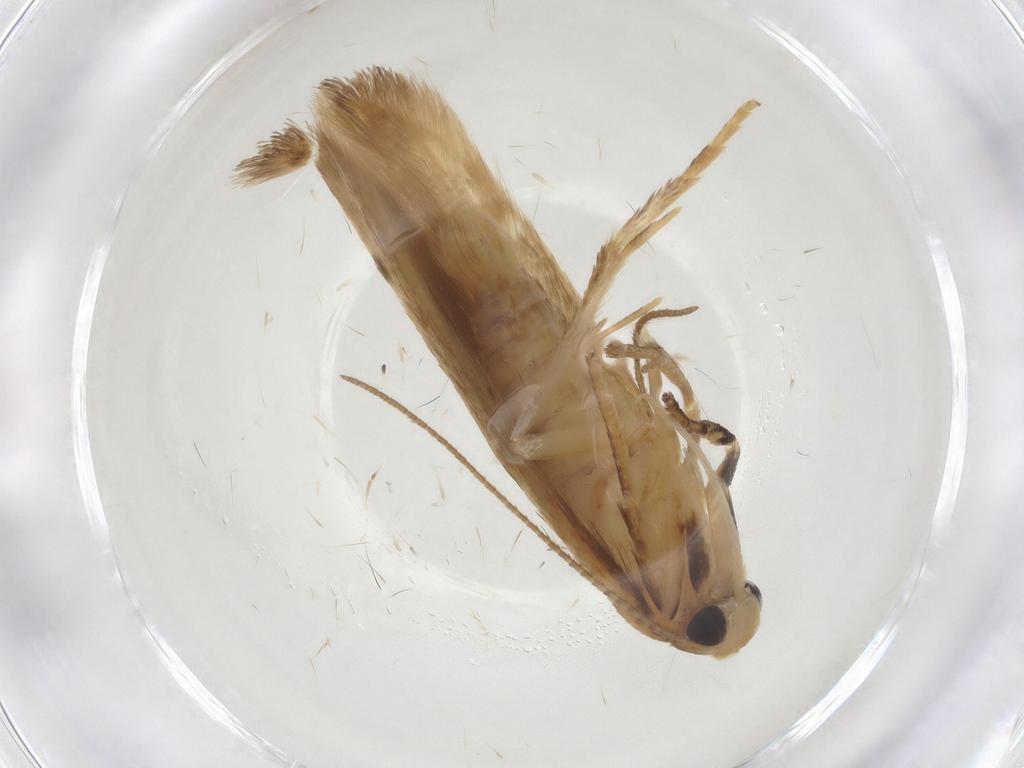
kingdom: Animalia
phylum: Arthropoda
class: Insecta
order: Lepidoptera
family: Stathmopodidae
